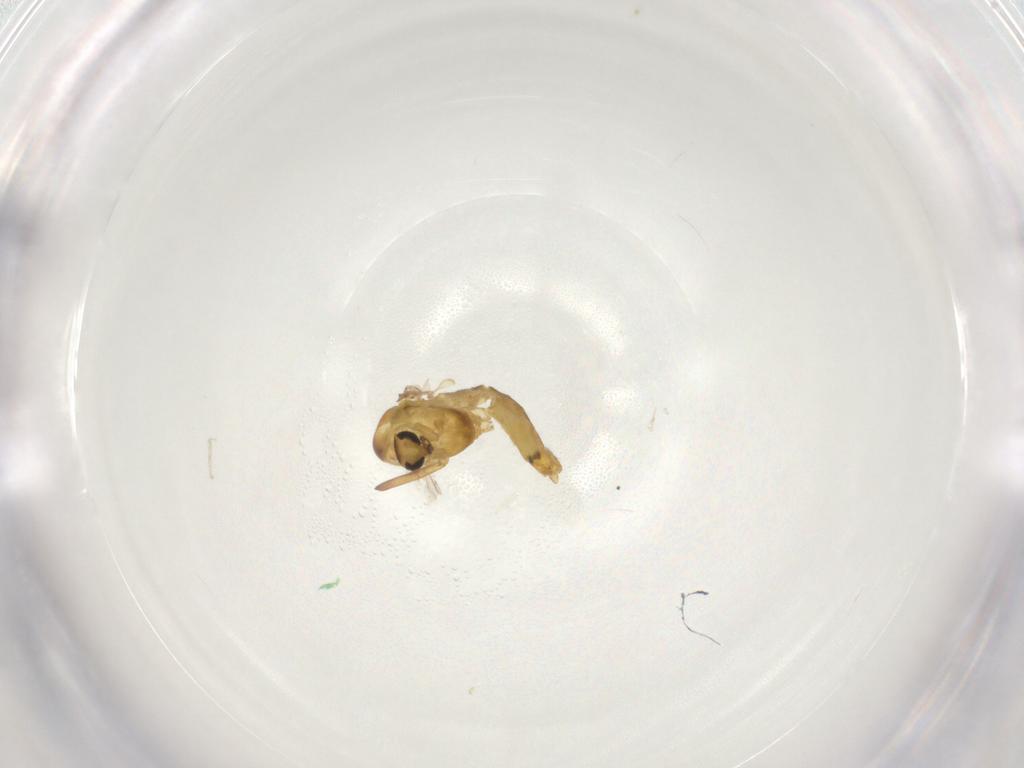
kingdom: Animalia
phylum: Arthropoda
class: Insecta
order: Diptera
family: Chironomidae
